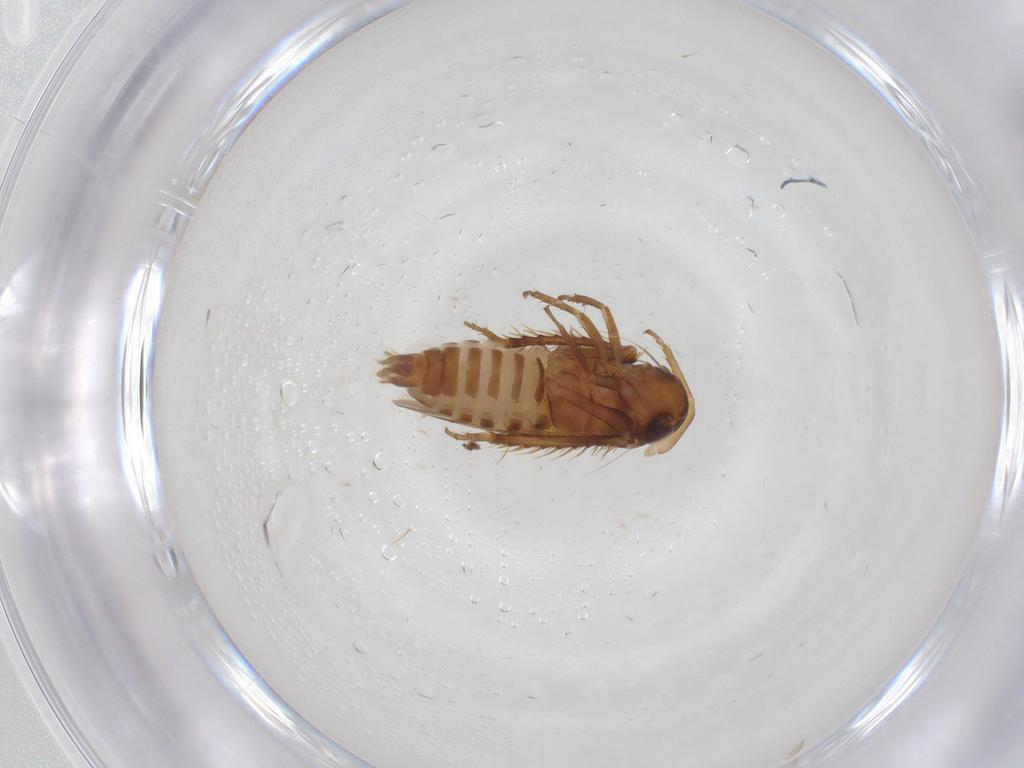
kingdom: Animalia
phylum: Arthropoda
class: Insecta
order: Hemiptera
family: Cicadellidae
